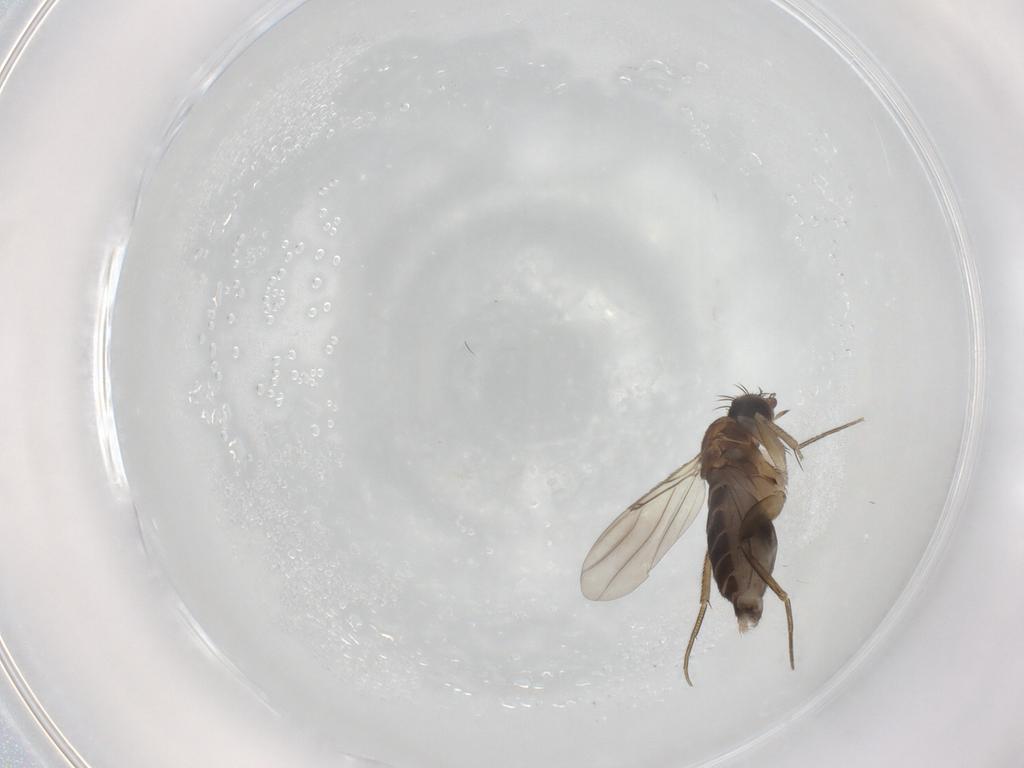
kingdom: Animalia
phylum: Arthropoda
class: Insecta
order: Diptera
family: Phoridae
